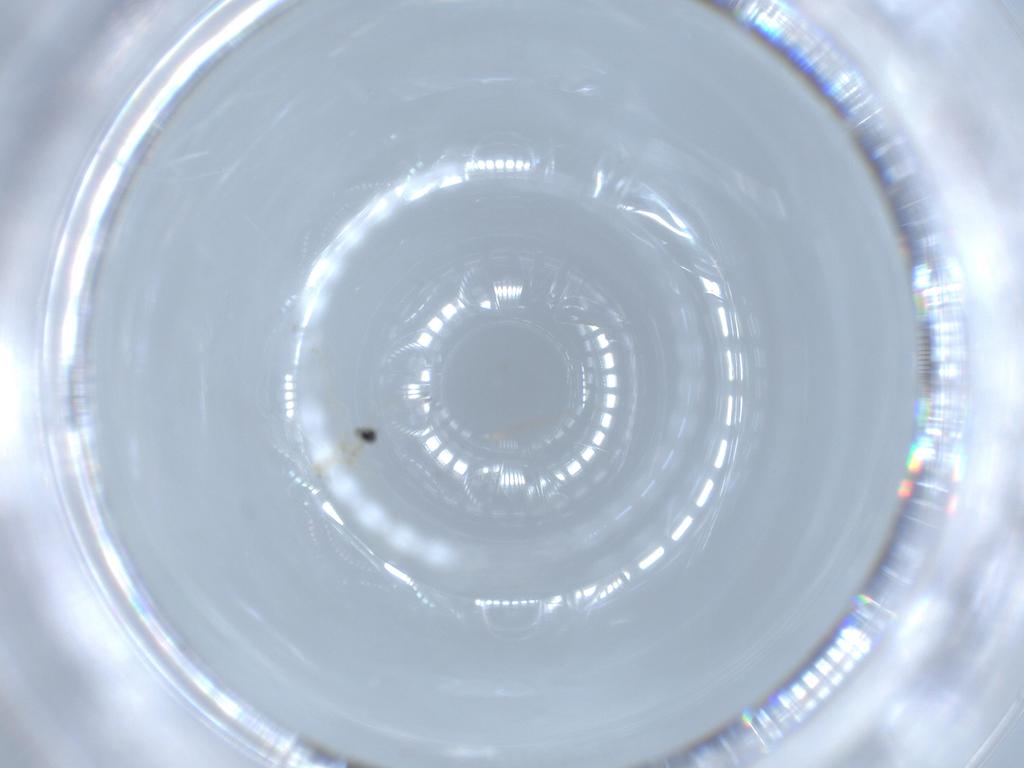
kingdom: Animalia
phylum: Arthropoda
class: Insecta
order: Diptera
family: Cecidomyiidae
